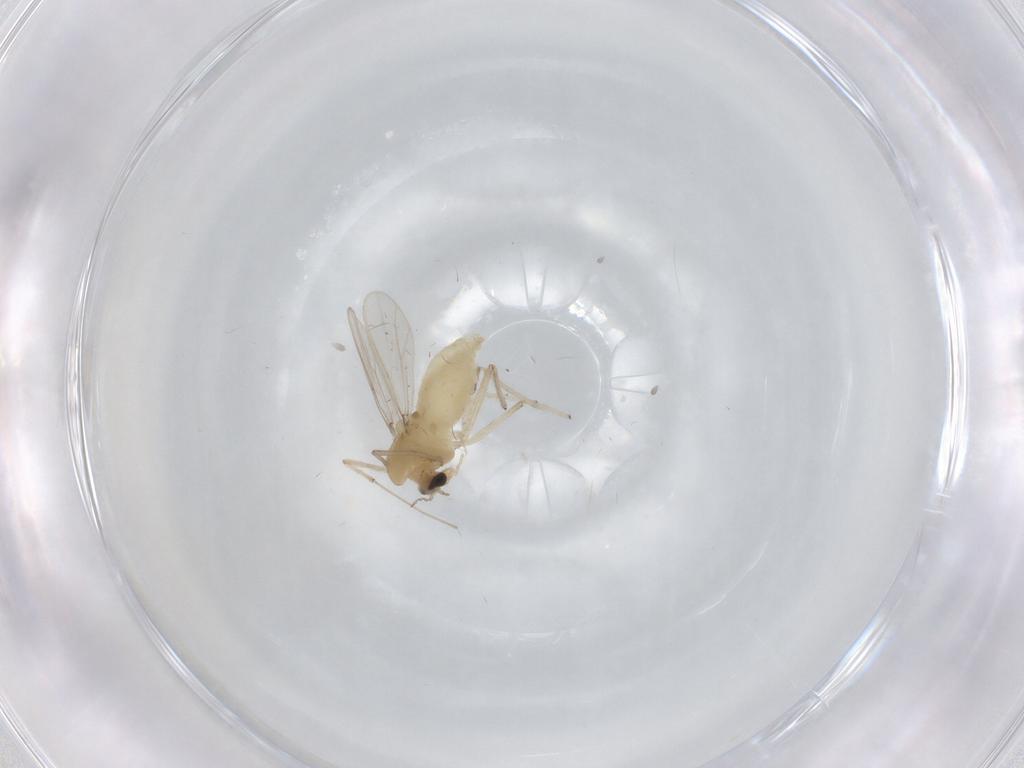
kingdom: Animalia
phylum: Arthropoda
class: Insecta
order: Diptera
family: Chironomidae
